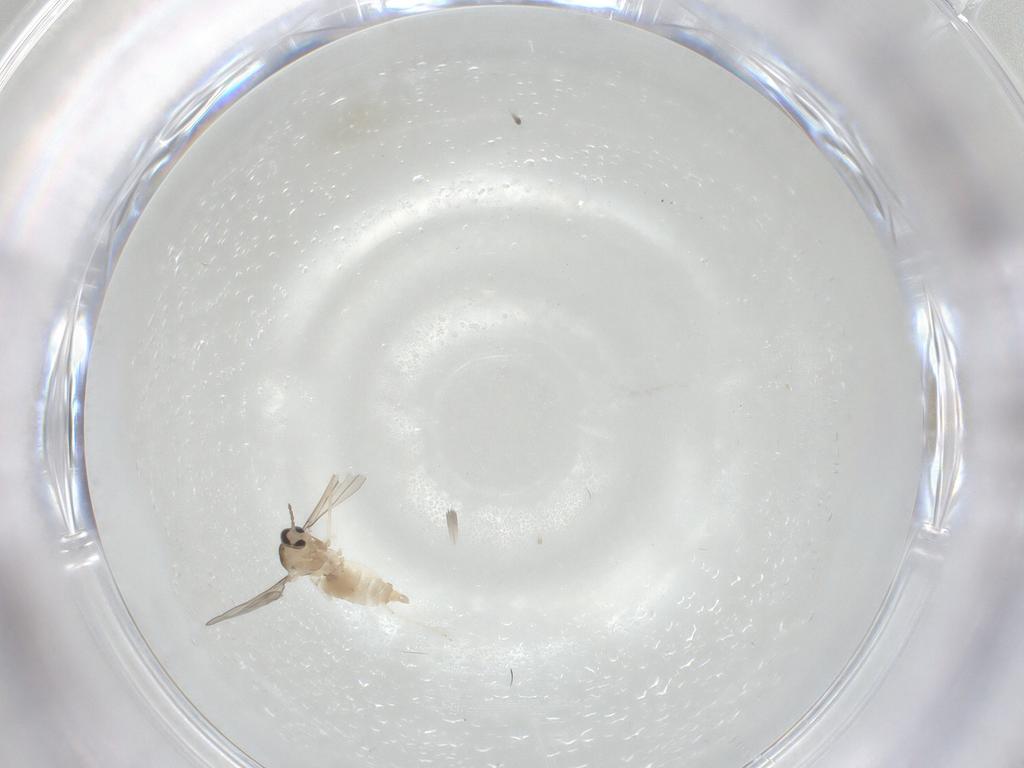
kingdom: Animalia
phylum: Arthropoda
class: Insecta
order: Diptera
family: Cecidomyiidae
